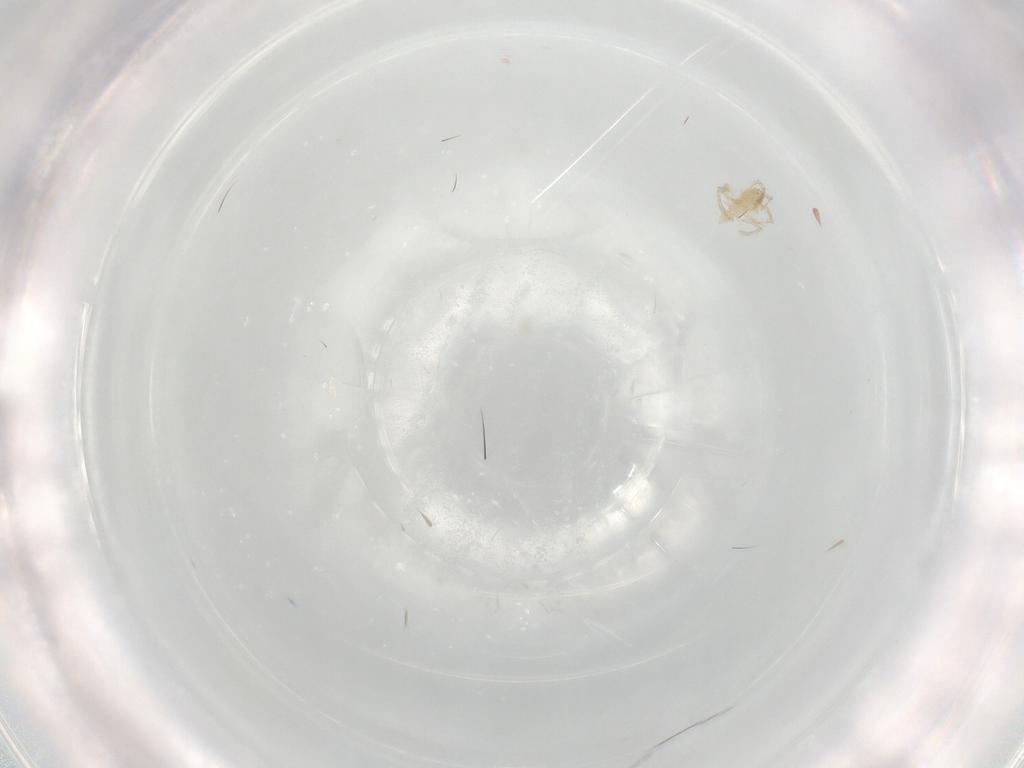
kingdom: Animalia
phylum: Arthropoda
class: Arachnida
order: Trombidiformes
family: Erythraeidae
